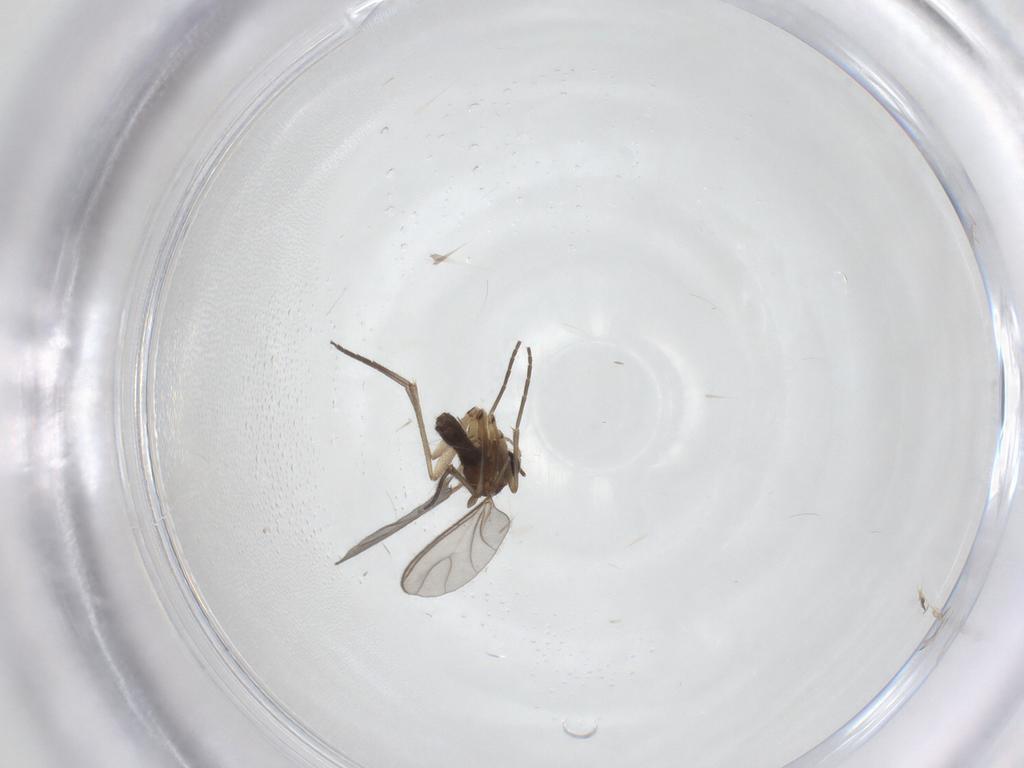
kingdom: Animalia
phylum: Arthropoda
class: Insecta
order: Diptera
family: Chironomidae
